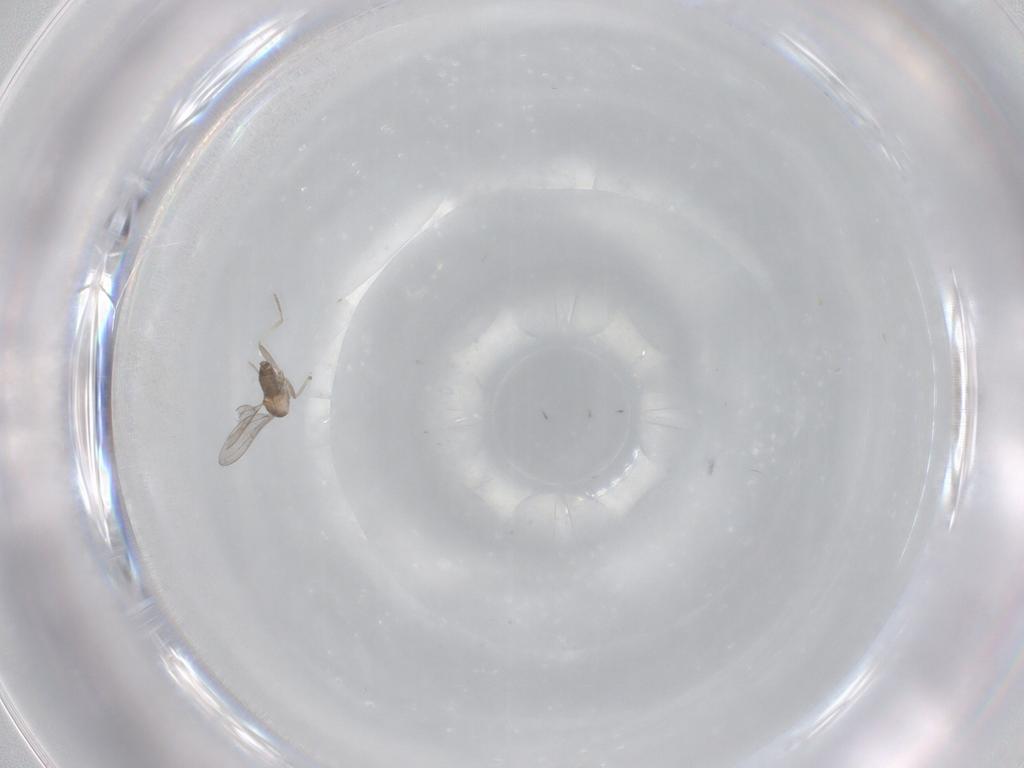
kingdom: Animalia
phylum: Arthropoda
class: Insecta
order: Diptera
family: Cecidomyiidae
